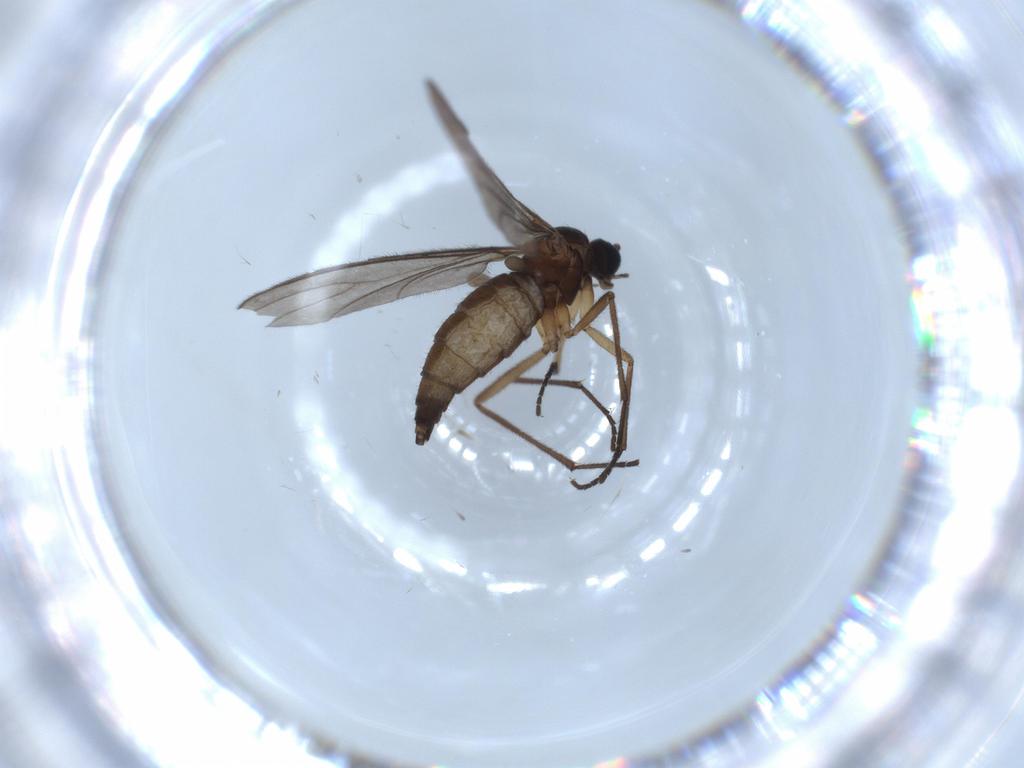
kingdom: Animalia
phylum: Arthropoda
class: Insecta
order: Diptera
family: Sciaridae
